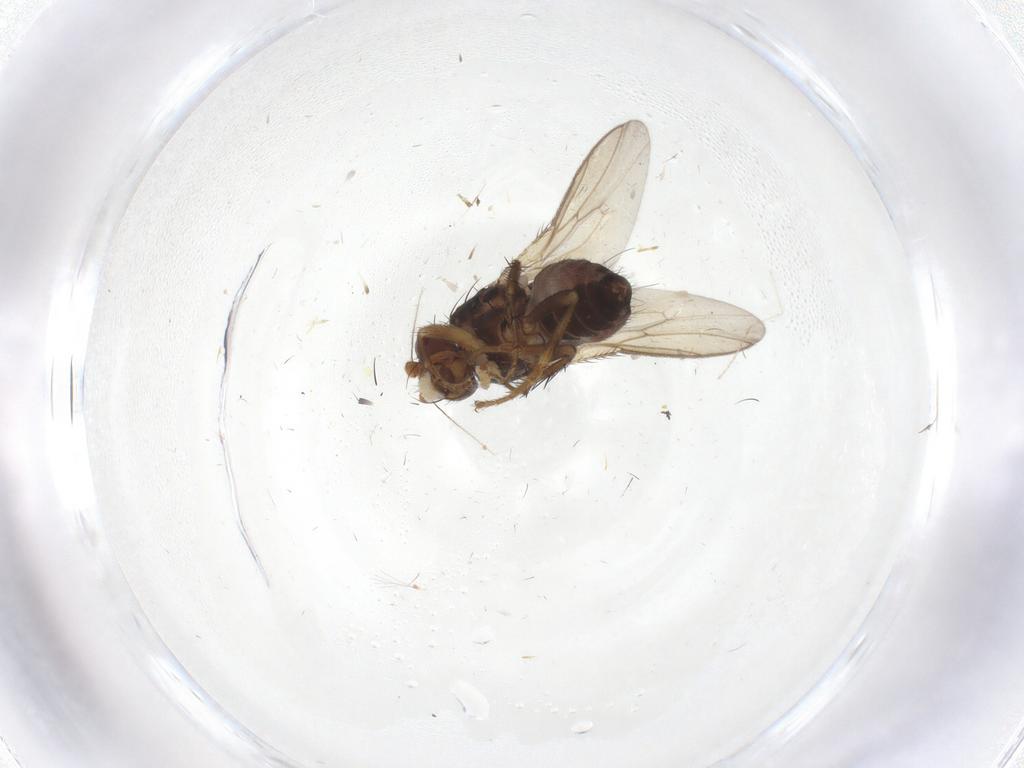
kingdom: Animalia
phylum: Arthropoda
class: Insecta
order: Diptera
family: Sphaeroceridae
